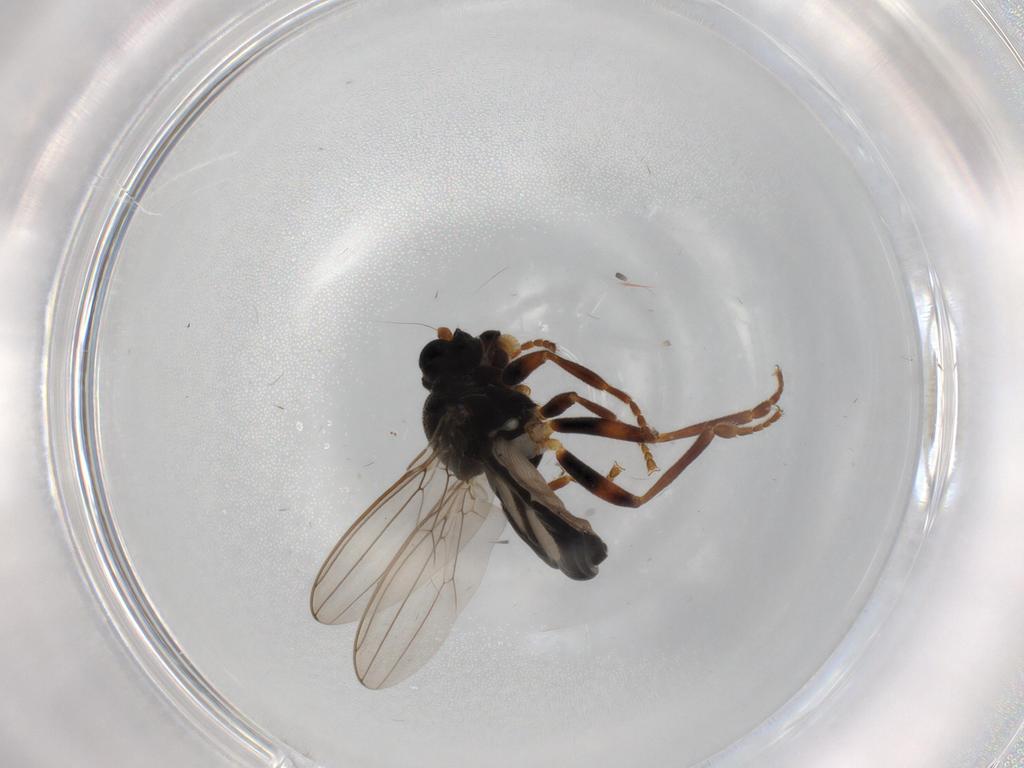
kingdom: Animalia
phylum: Arthropoda
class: Insecta
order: Diptera
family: Sphaeroceridae
